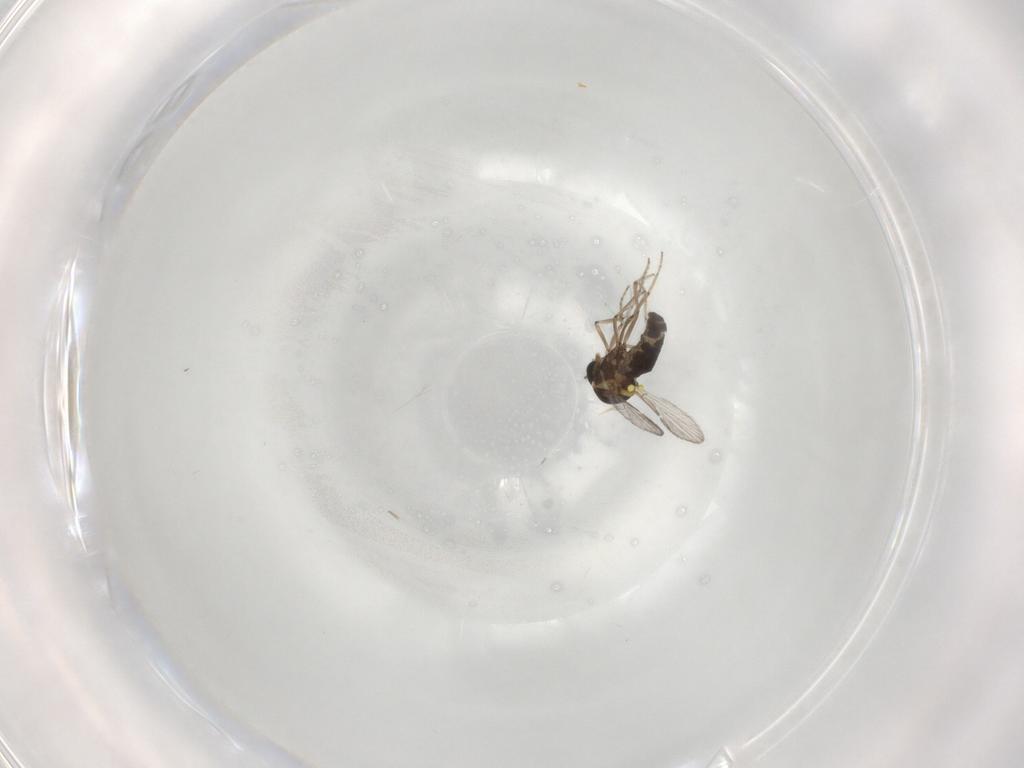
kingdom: Animalia
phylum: Arthropoda
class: Insecta
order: Diptera
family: Ceratopogonidae
